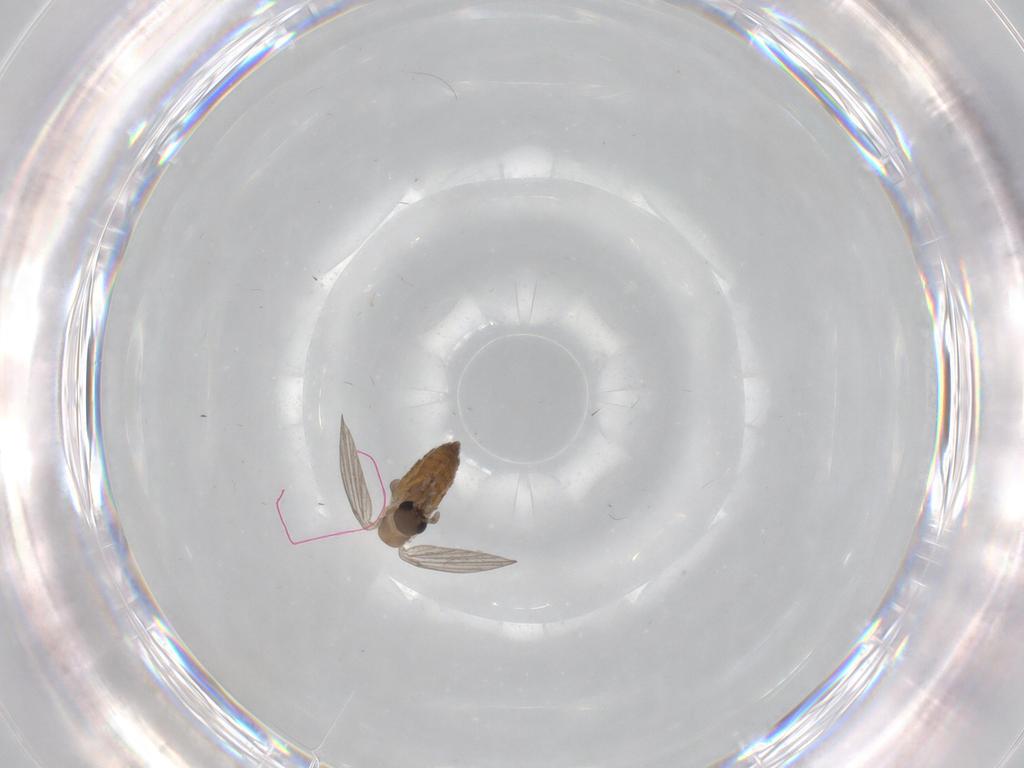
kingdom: Animalia
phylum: Arthropoda
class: Insecta
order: Diptera
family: Psychodidae
